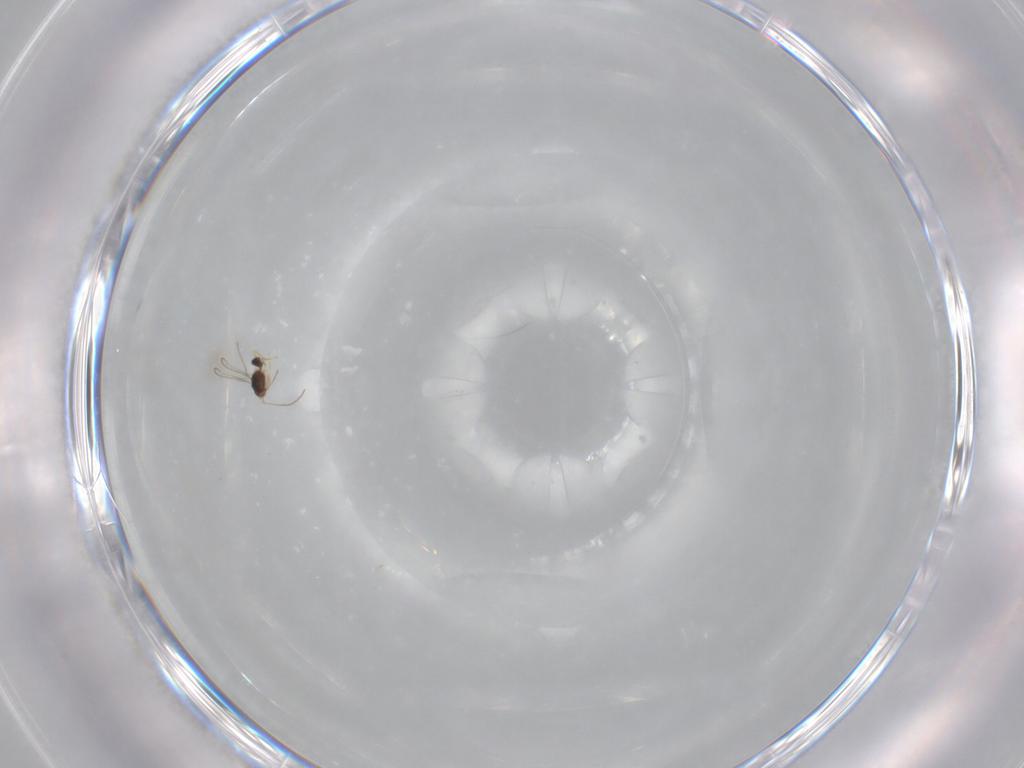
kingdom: Animalia
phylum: Arthropoda
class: Insecta
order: Hymenoptera
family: Ichneumonidae
